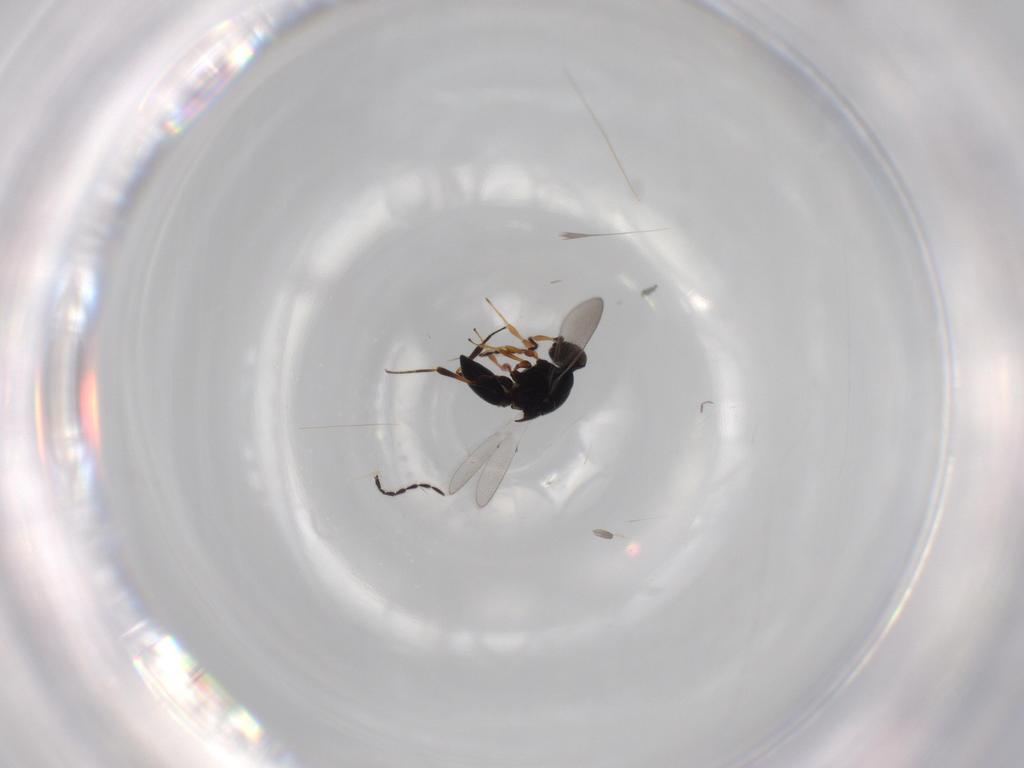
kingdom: Animalia
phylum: Arthropoda
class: Insecta
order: Hymenoptera
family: Platygastridae
